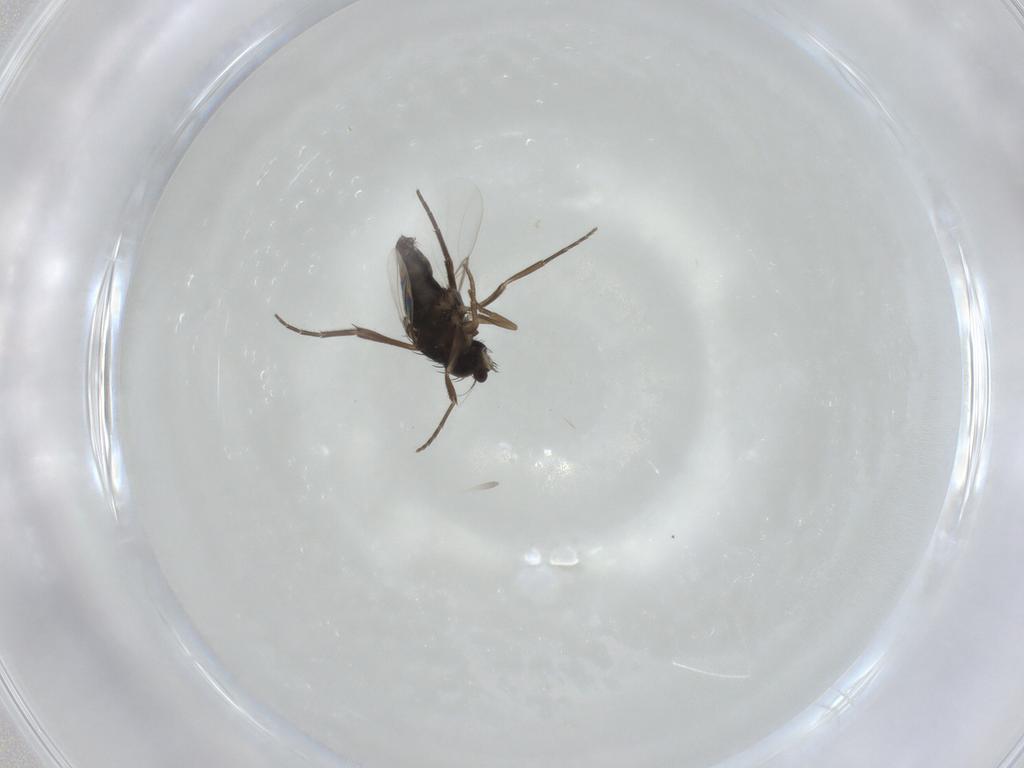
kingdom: Animalia
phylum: Arthropoda
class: Insecta
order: Diptera
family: Phoridae
